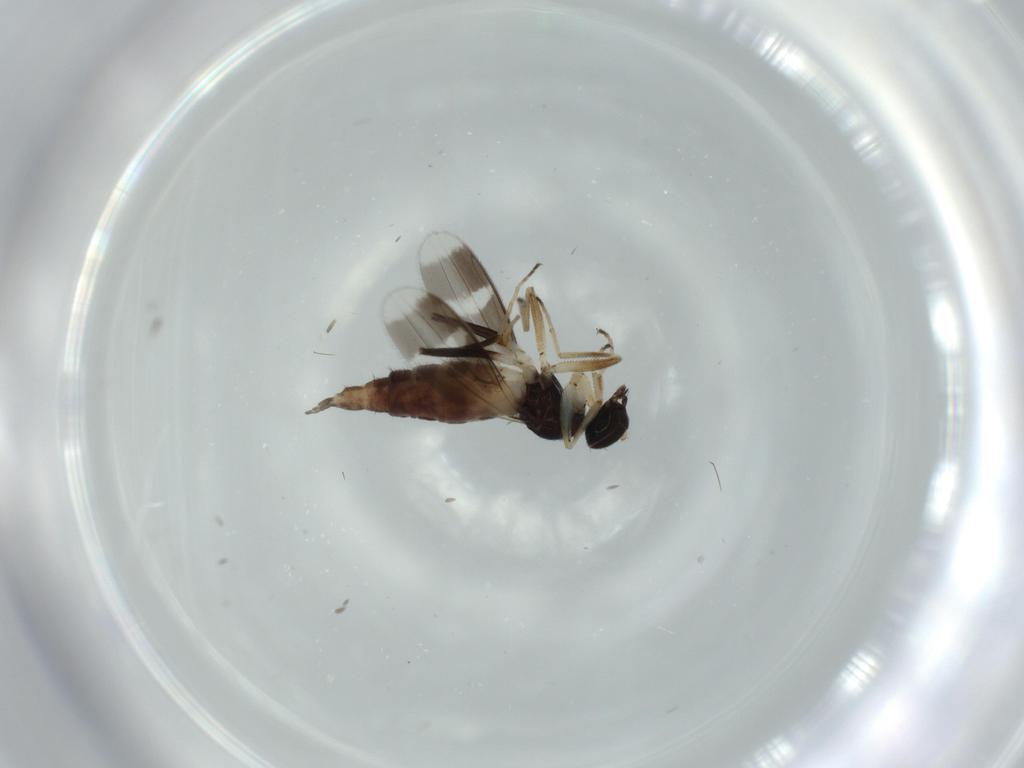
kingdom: Animalia
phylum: Arthropoda
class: Insecta
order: Diptera
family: Hybotidae
